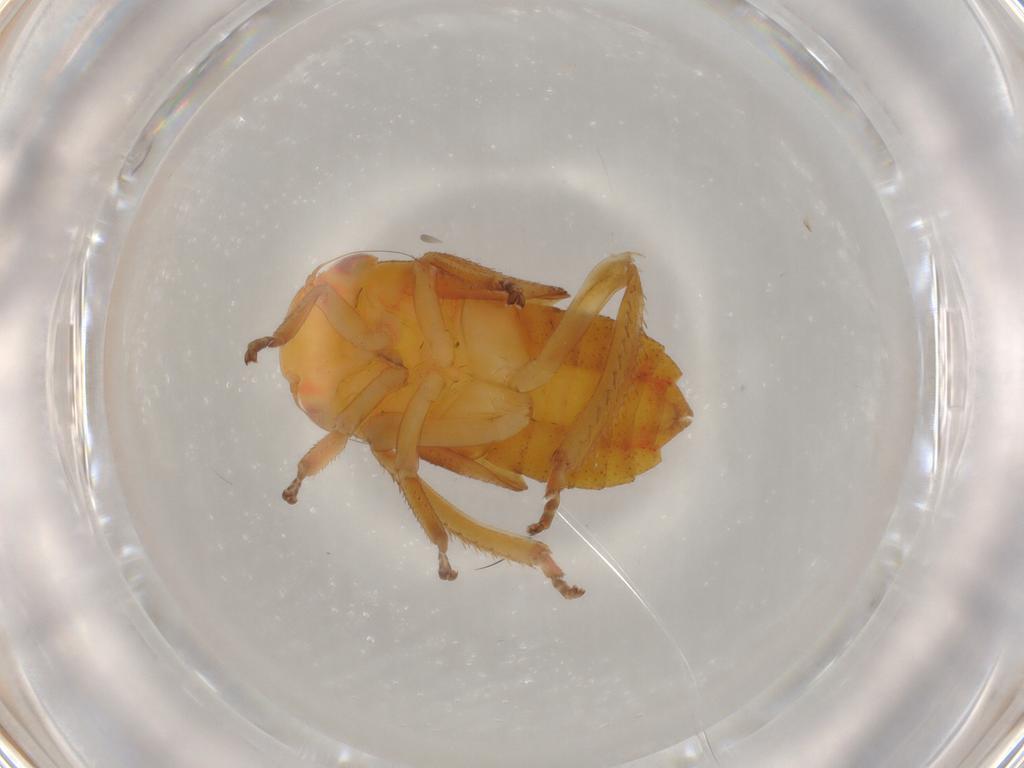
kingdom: Animalia
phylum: Arthropoda
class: Insecta
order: Hemiptera
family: Cicadellidae
